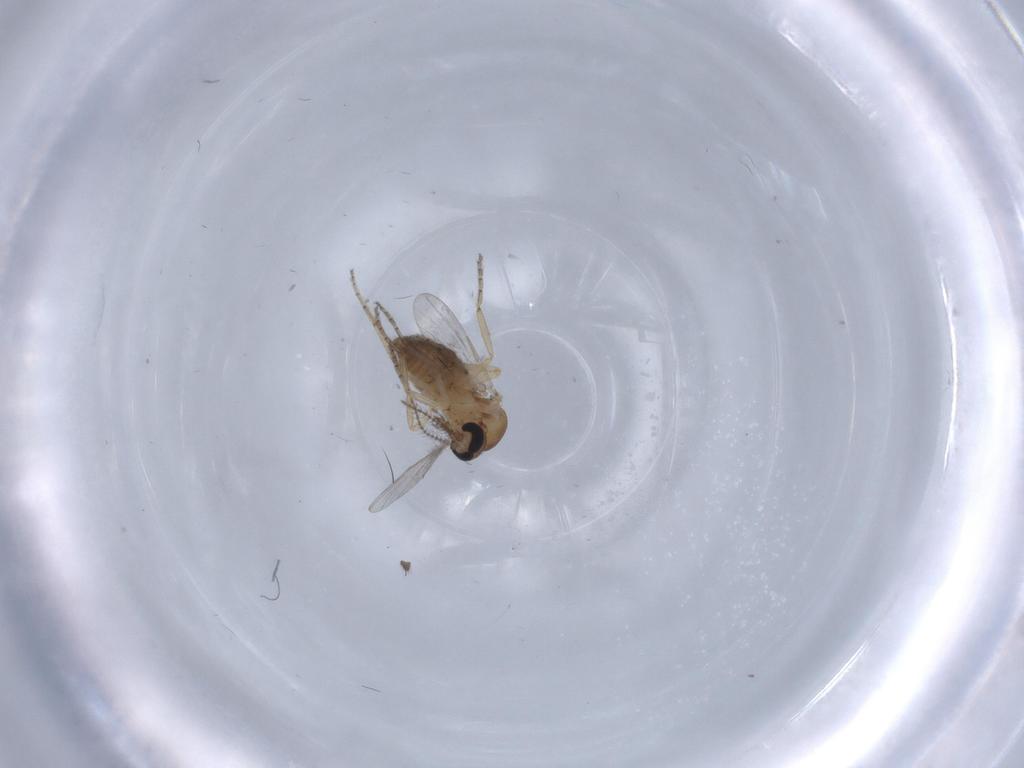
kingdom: Animalia
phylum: Arthropoda
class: Insecta
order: Diptera
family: Ceratopogonidae
